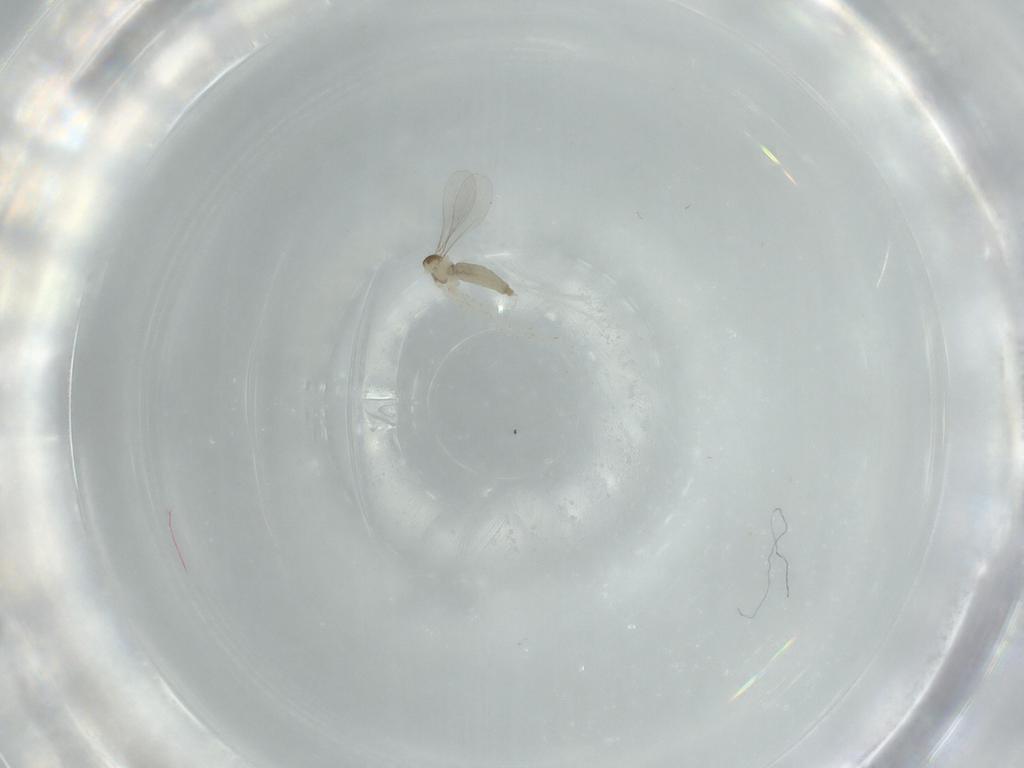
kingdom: Animalia
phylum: Arthropoda
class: Insecta
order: Diptera
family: Cecidomyiidae
